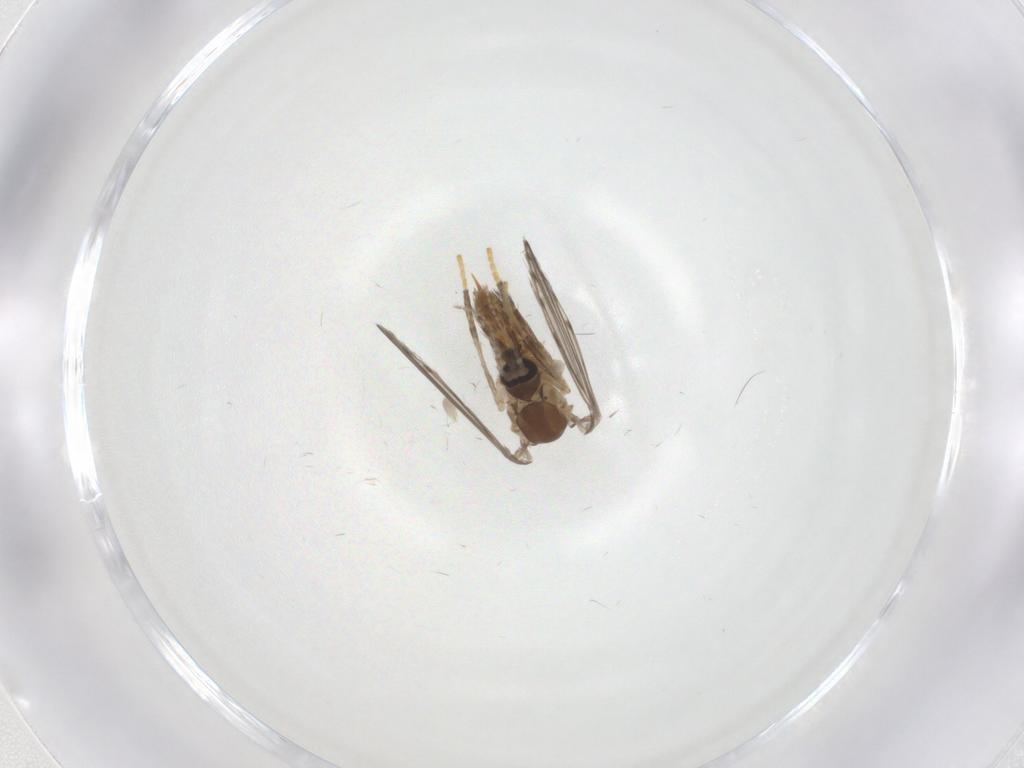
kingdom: Animalia
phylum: Arthropoda
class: Insecta
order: Diptera
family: Psychodidae
